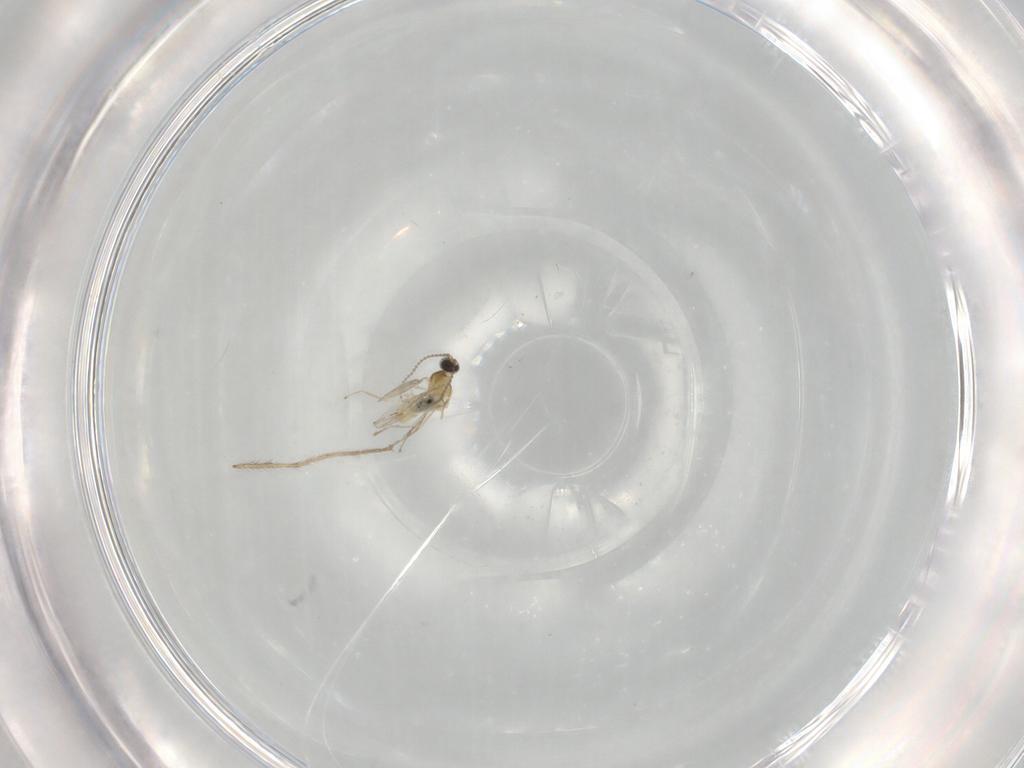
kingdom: Animalia
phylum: Arthropoda
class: Insecta
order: Diptera
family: Chironomidae
